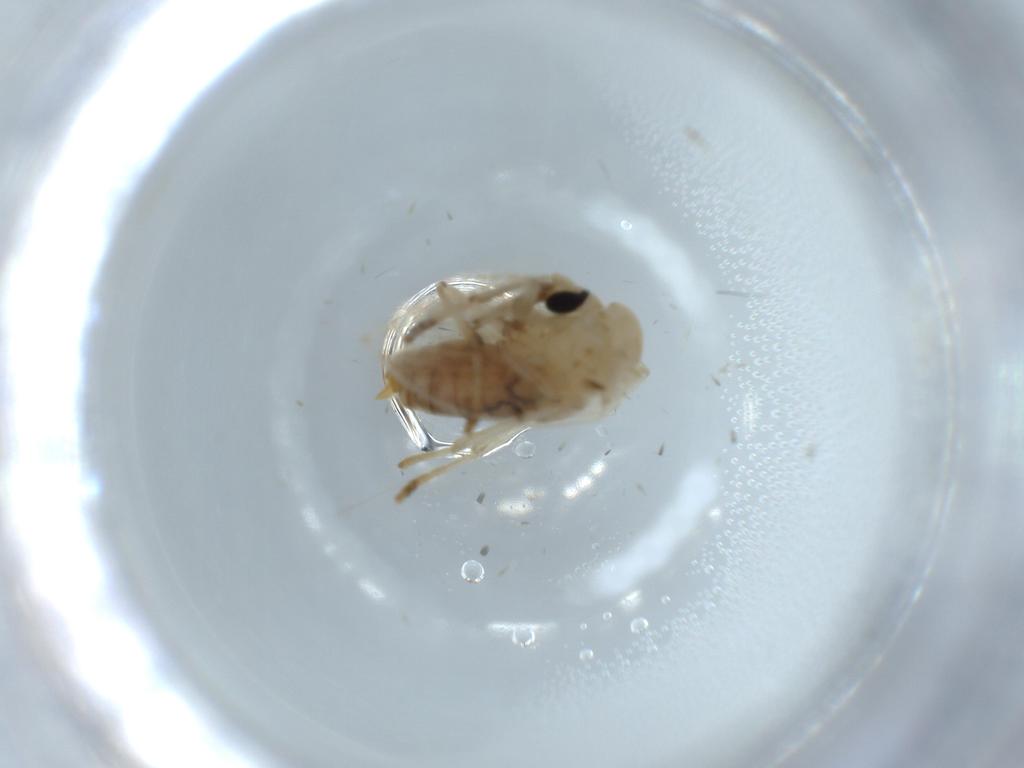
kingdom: Animalia
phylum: Arthropoda
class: Insecta
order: Diptera
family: Psychodidae
